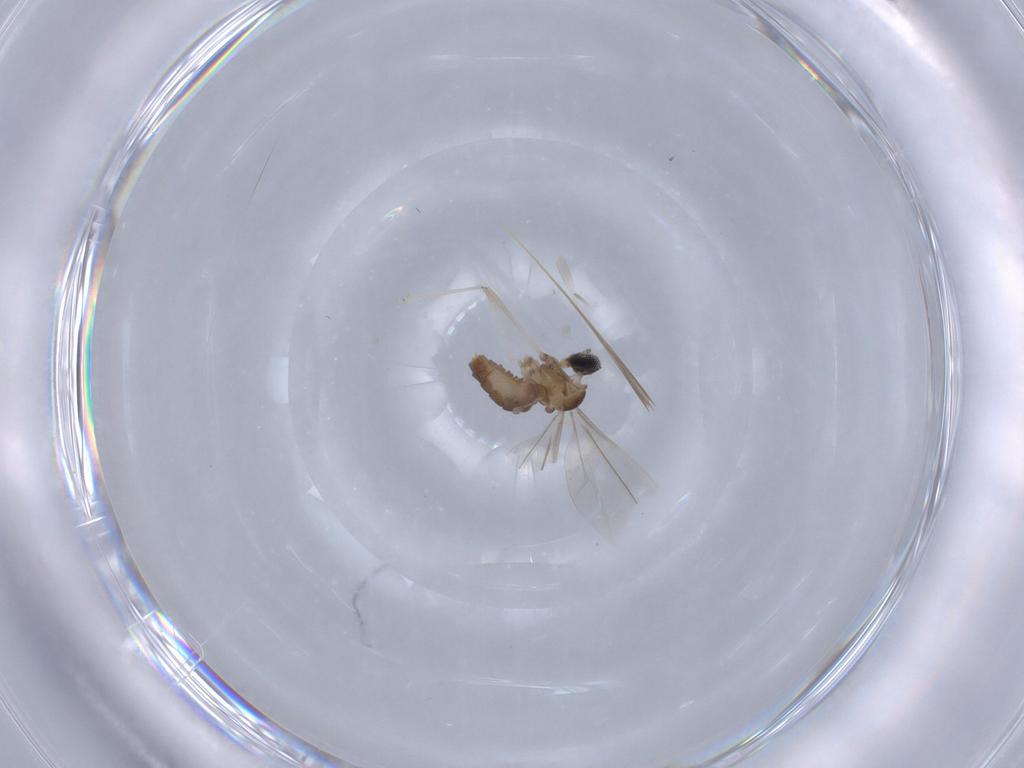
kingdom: Animalia
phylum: Arthropoda
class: Insecta
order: Diptera
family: Cecidomyiidae
